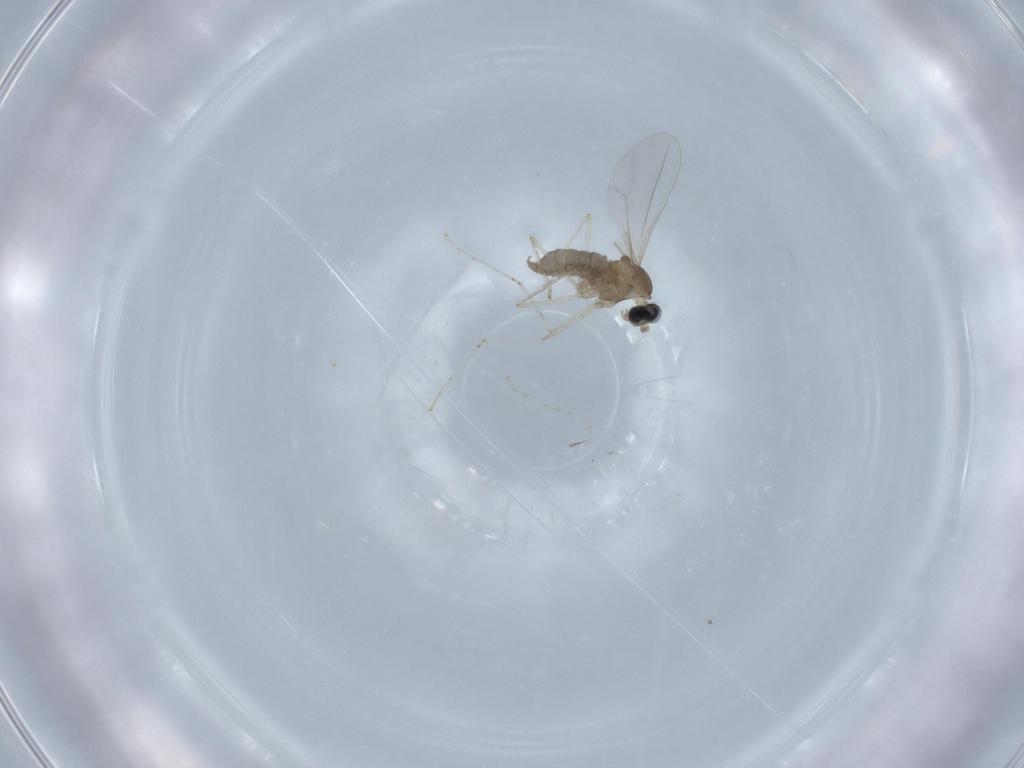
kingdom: Animalia
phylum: Arthropoda
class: Insecta
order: Diptera
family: Cecidomyiidae
